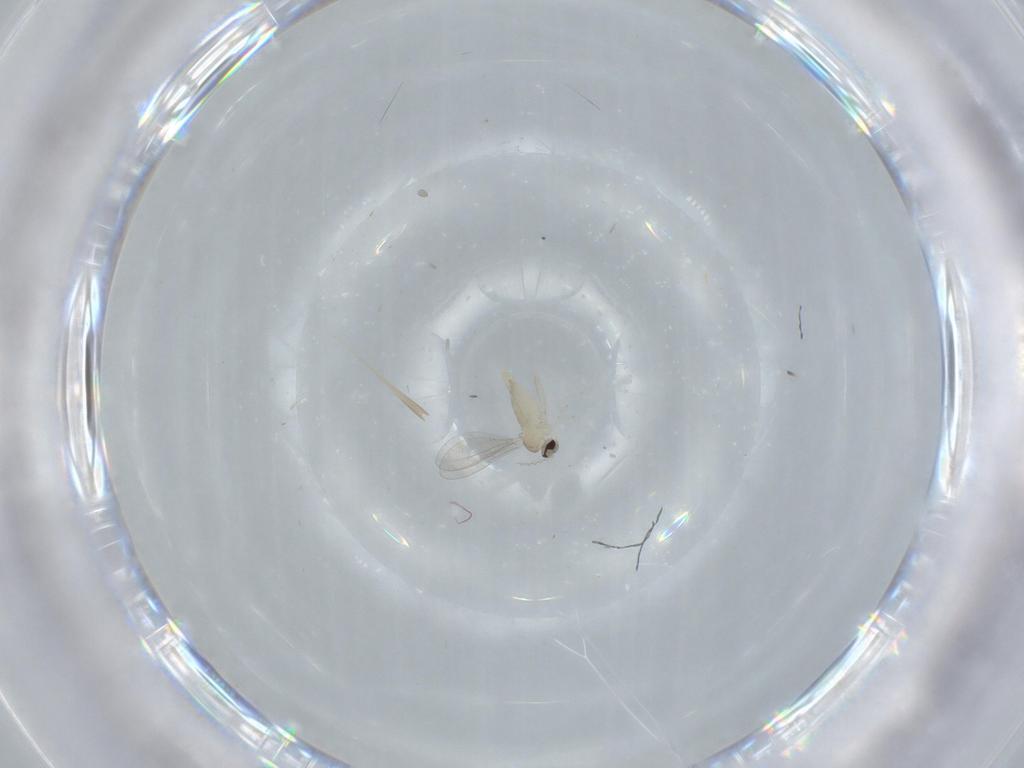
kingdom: Animalia
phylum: Arthropoda
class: Insecta
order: Diptera
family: Cecidomyiidae
